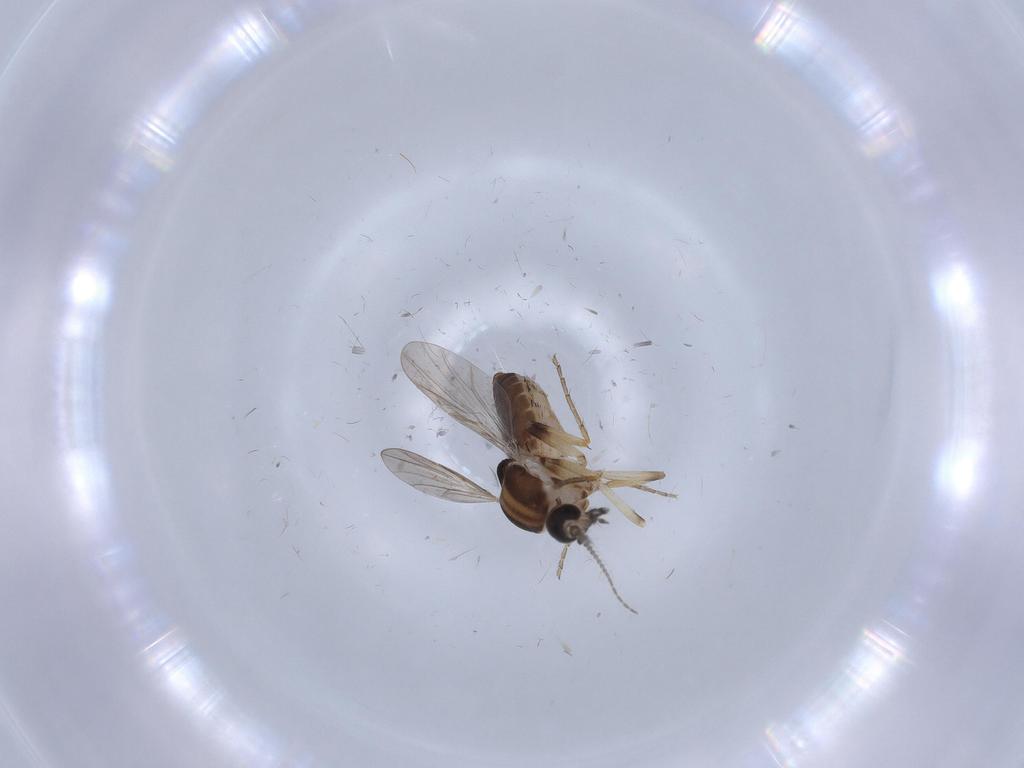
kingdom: Animalia
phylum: Arthropoda
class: Insecta
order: Diptera
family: Ceratopogonidae
